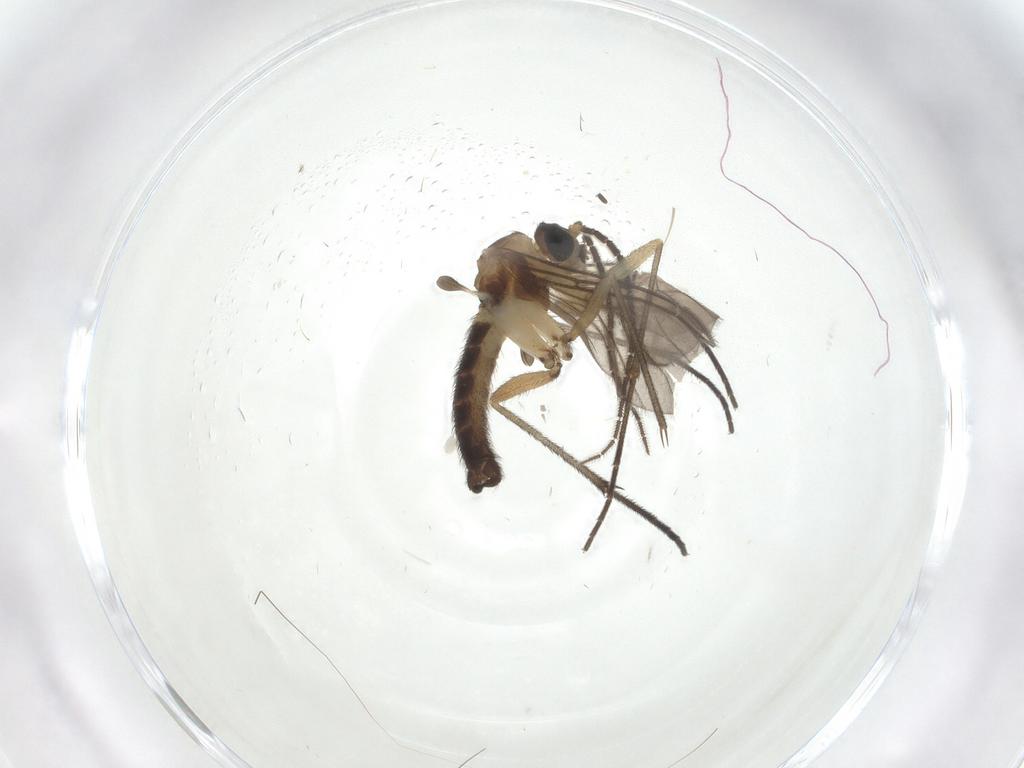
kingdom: Animalia
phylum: Arthropoda
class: Insecta
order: Diptera
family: Sciaridae
